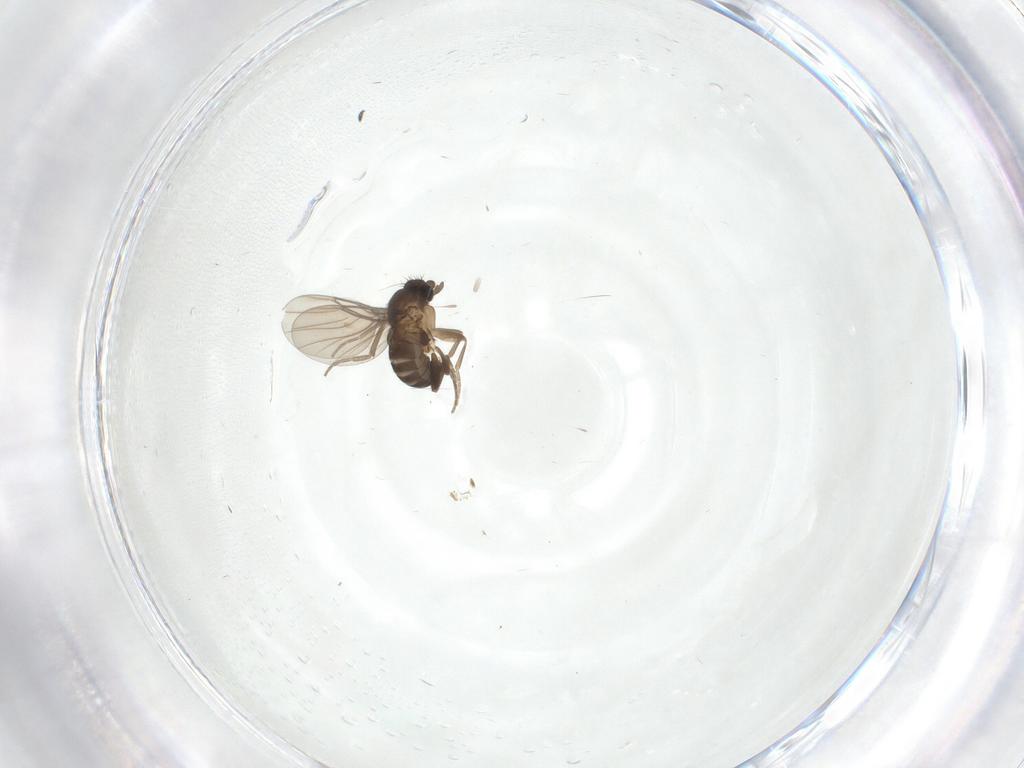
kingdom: Animalia
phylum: Arthropoda
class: Insecta
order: Diptera
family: Phoridae
